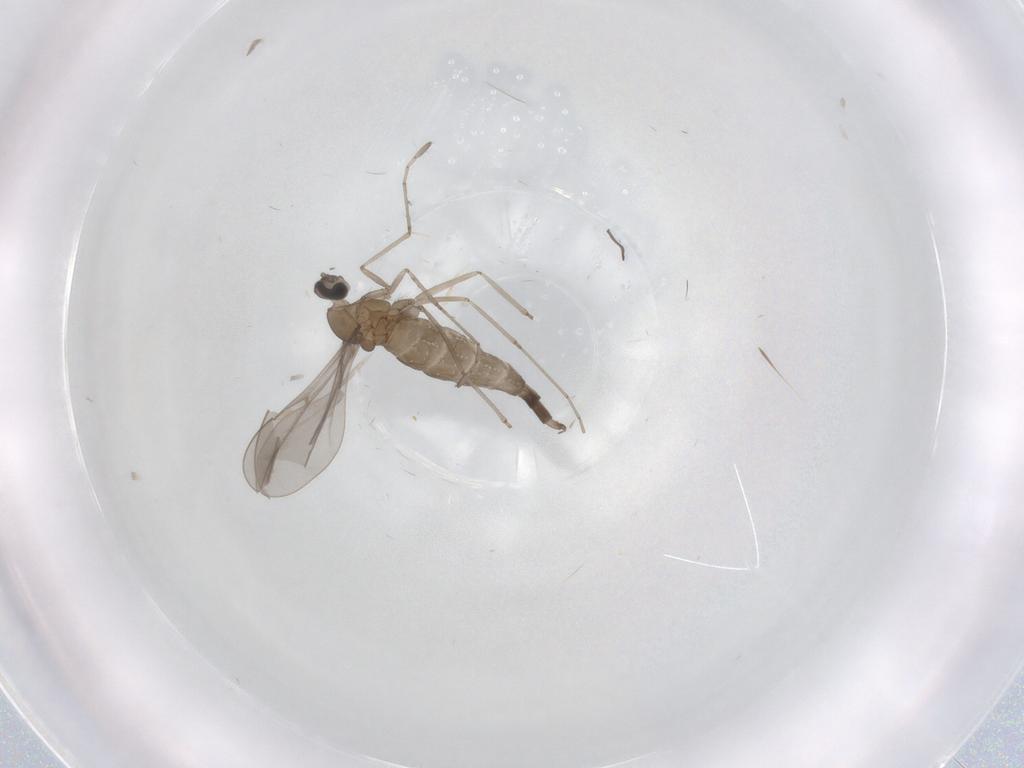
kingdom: Animalia
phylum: Arthropoda
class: Insecta
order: Diptera
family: Cecidomyiidae
